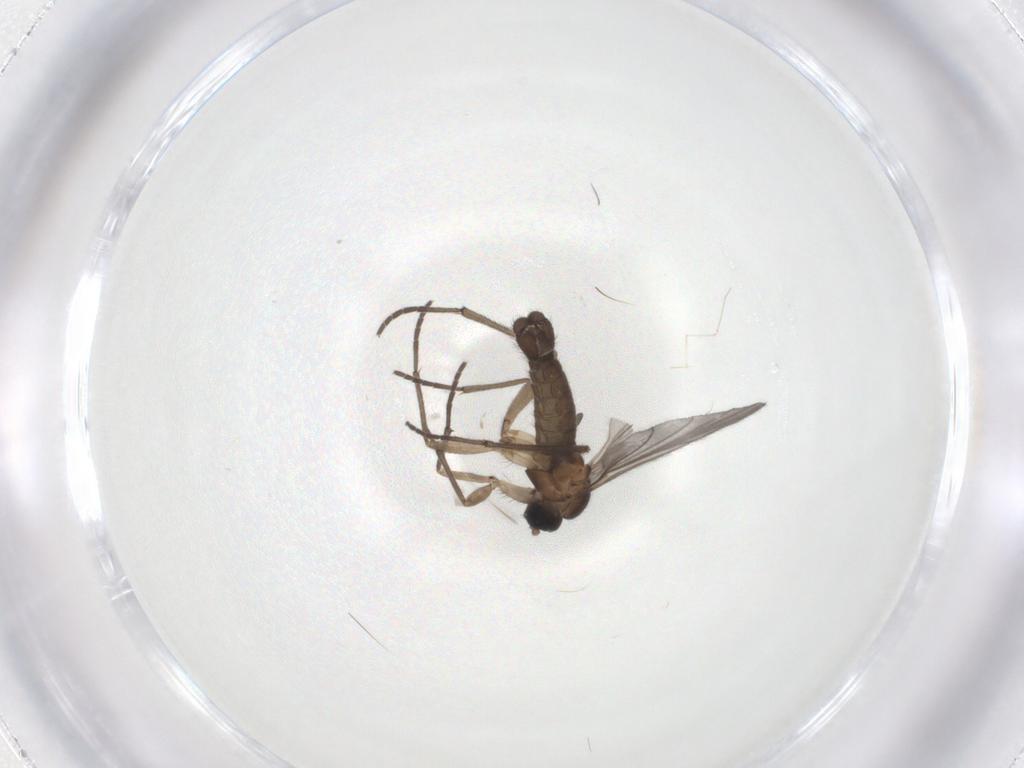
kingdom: Animalia
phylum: Arthropoda
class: Insecta
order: Diptera
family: Sciaridae
